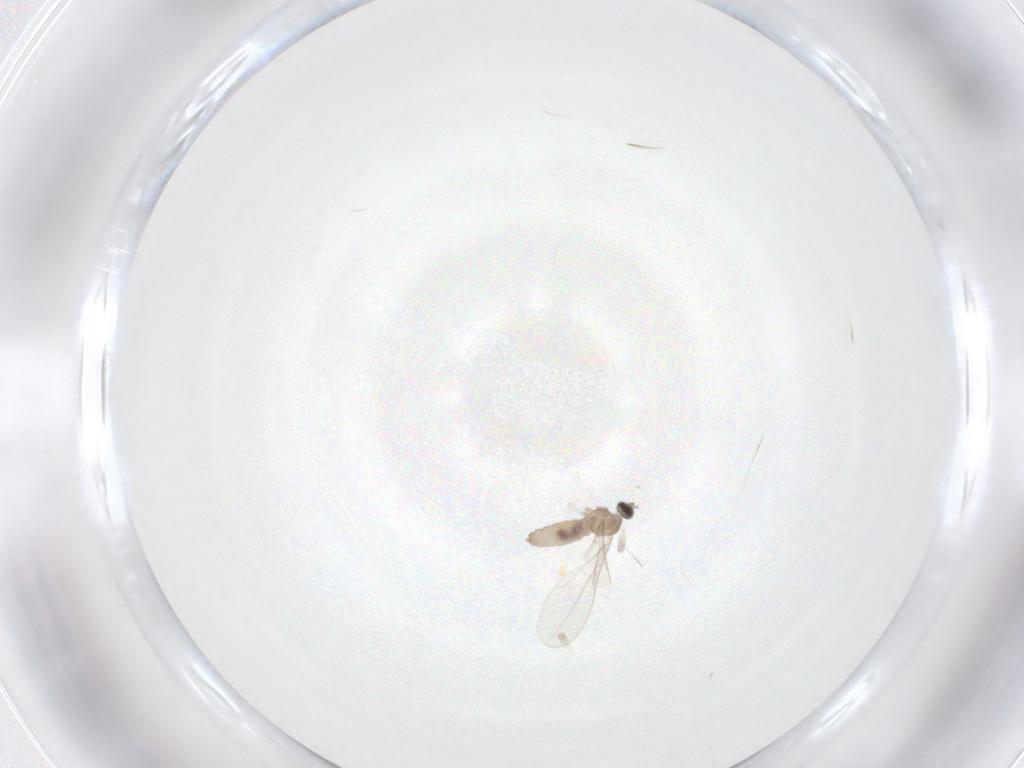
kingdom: Animalia
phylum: Arthropoda
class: Insecta
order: Diptera
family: Cecidomyiidae
